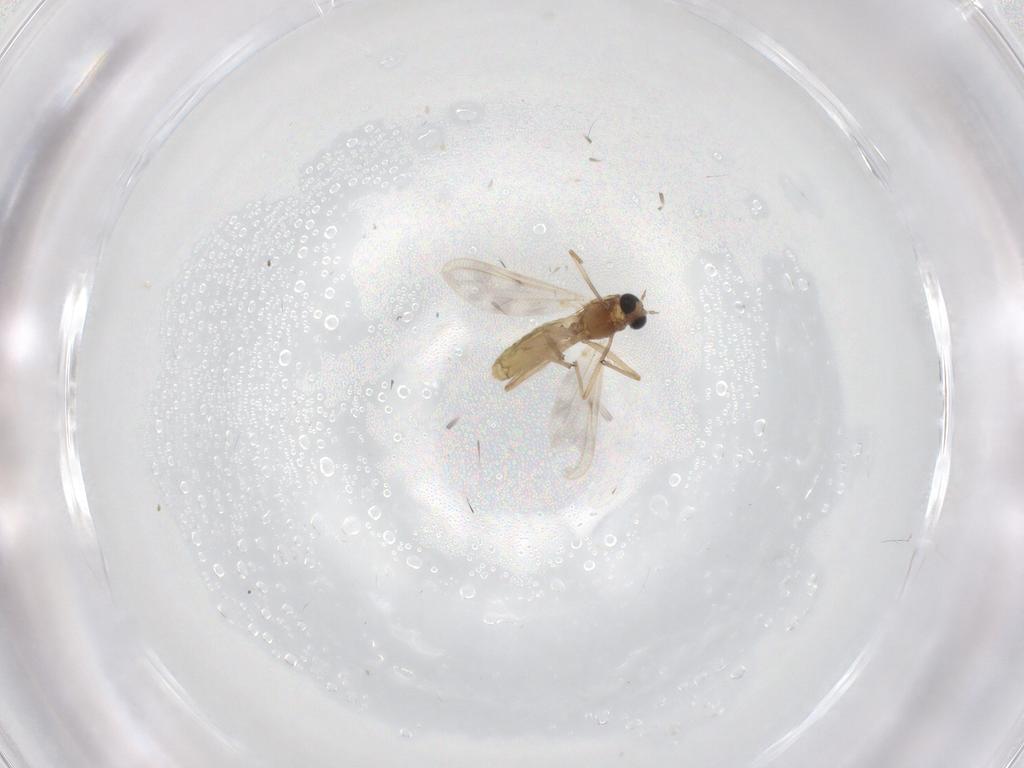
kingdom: Animalia
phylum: Arthropoda
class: Insecta
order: Diptera
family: Chironomidae
